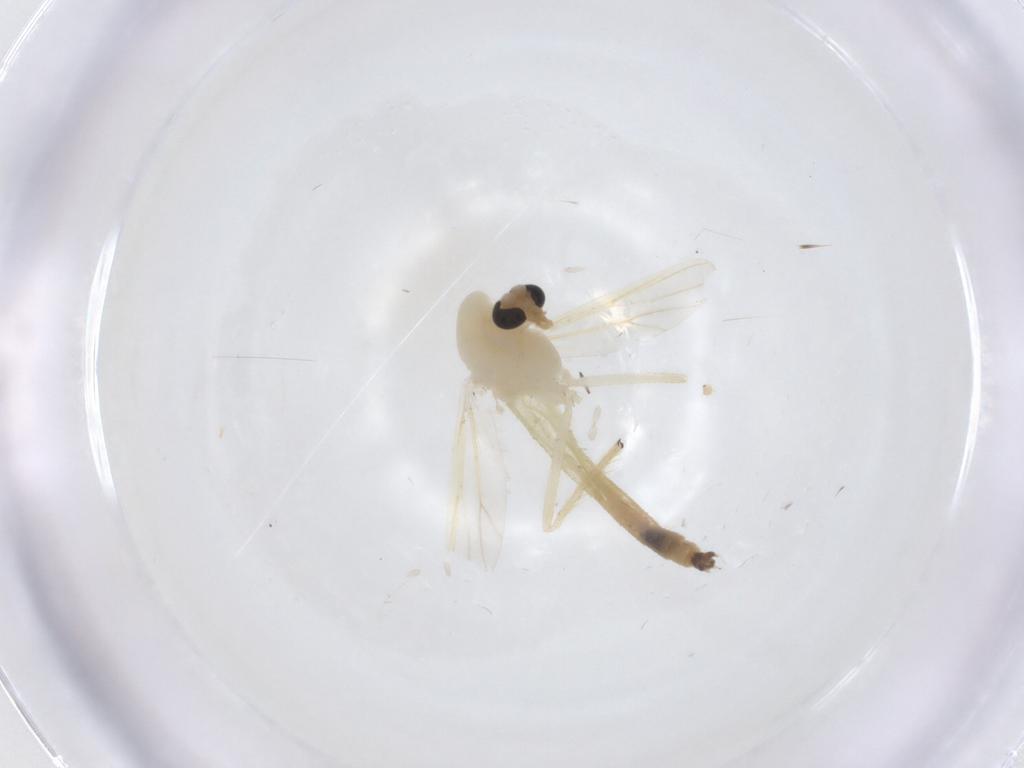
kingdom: Animalia
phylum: Arthropoda
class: Insecta
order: Diptera
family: Chironomidae
